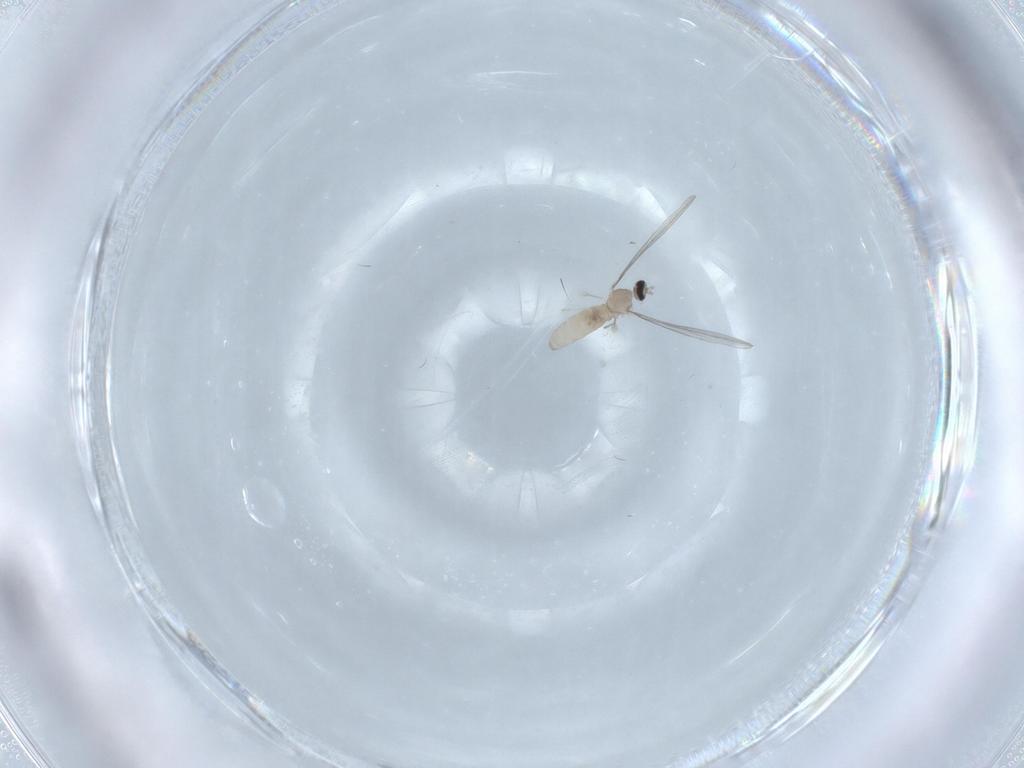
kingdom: Animalia
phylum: Arthropoda
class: Insecta
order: Diptera
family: Cecidomyiidae
